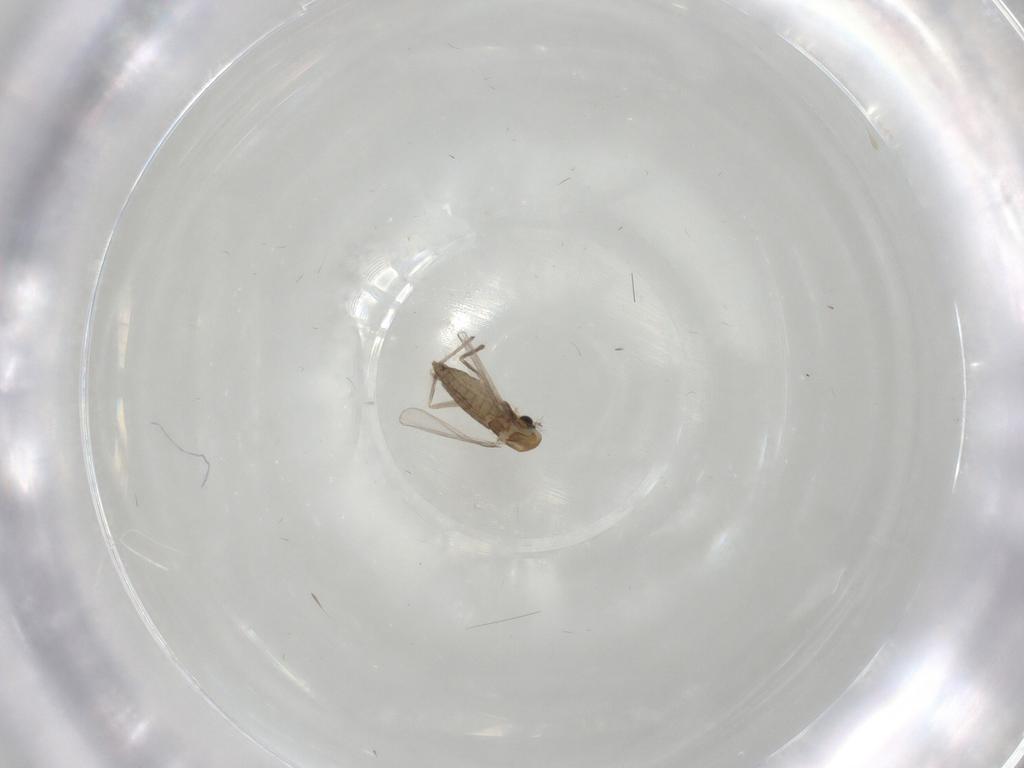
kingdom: Animalia
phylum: Arthropoda
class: Insecta
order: Diptera
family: Chironomidae
